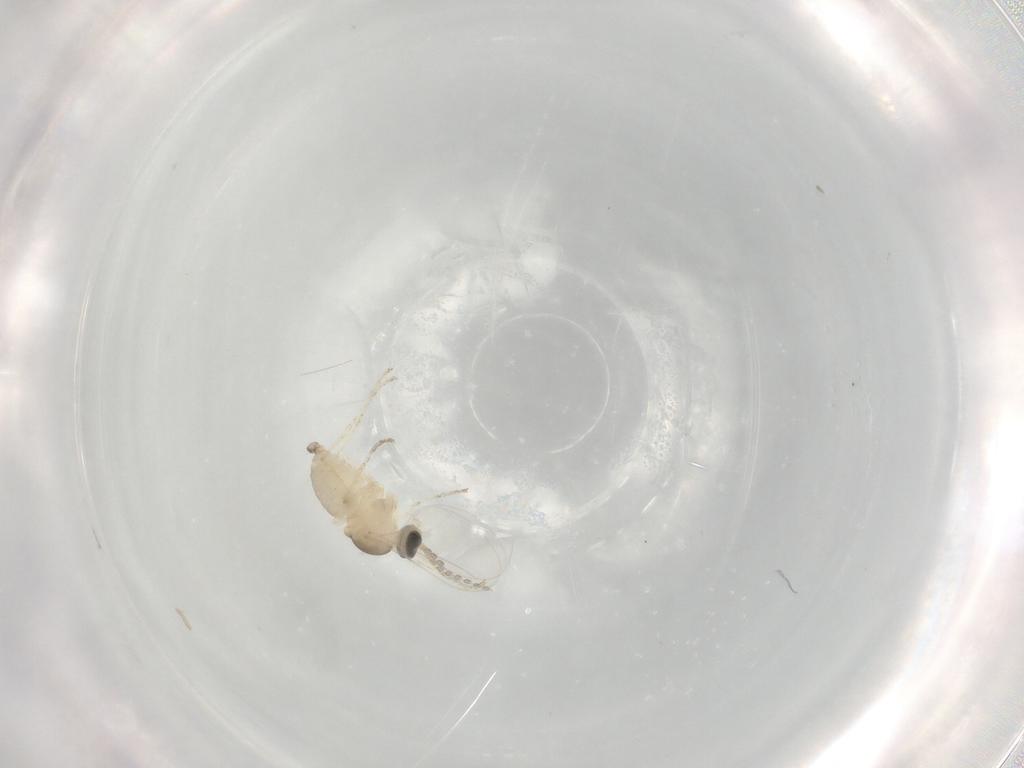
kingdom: Animalia
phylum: Arthropoda
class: Insecta
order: Diptera
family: Cecidomyiidae
